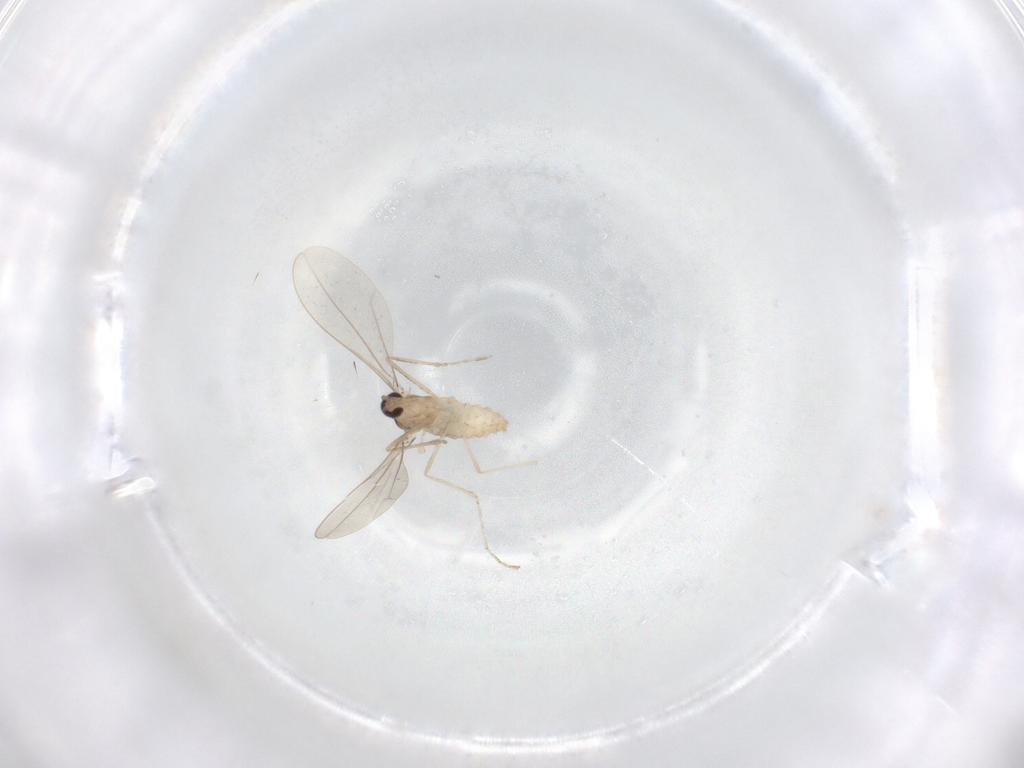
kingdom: Animalia
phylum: Arthropoda
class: Insecta
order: Diptera
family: Cecidomyiidae
